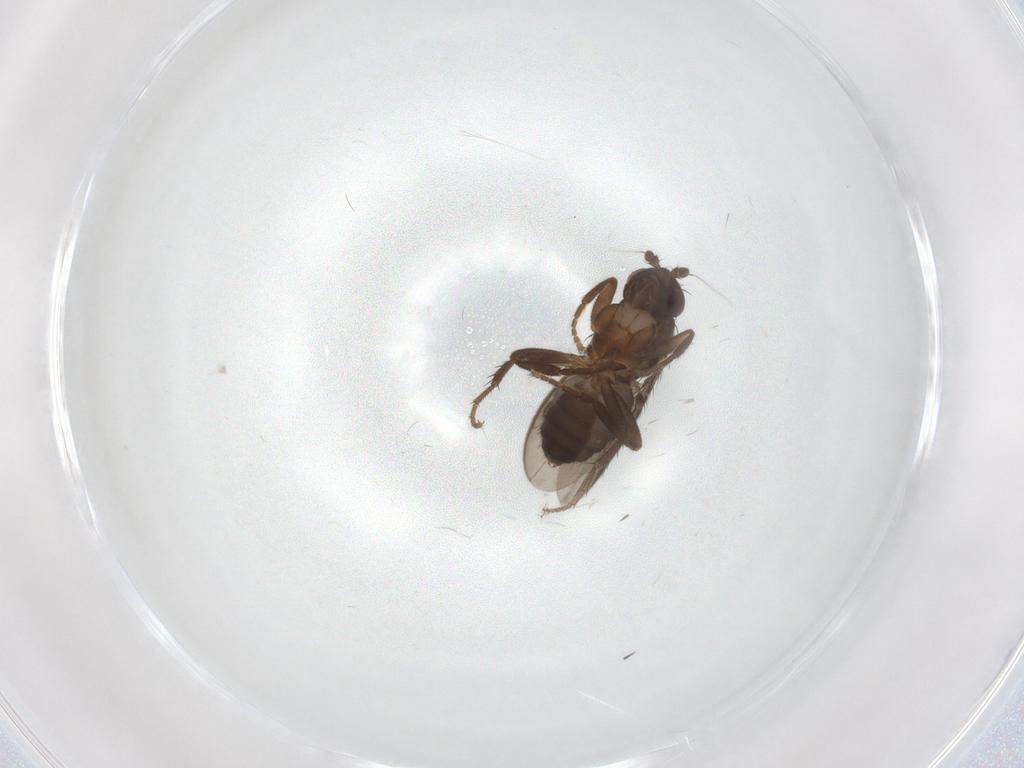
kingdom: Animalia
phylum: Arthropoda
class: Insecta
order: Diptera
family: Sphaeroceridae
